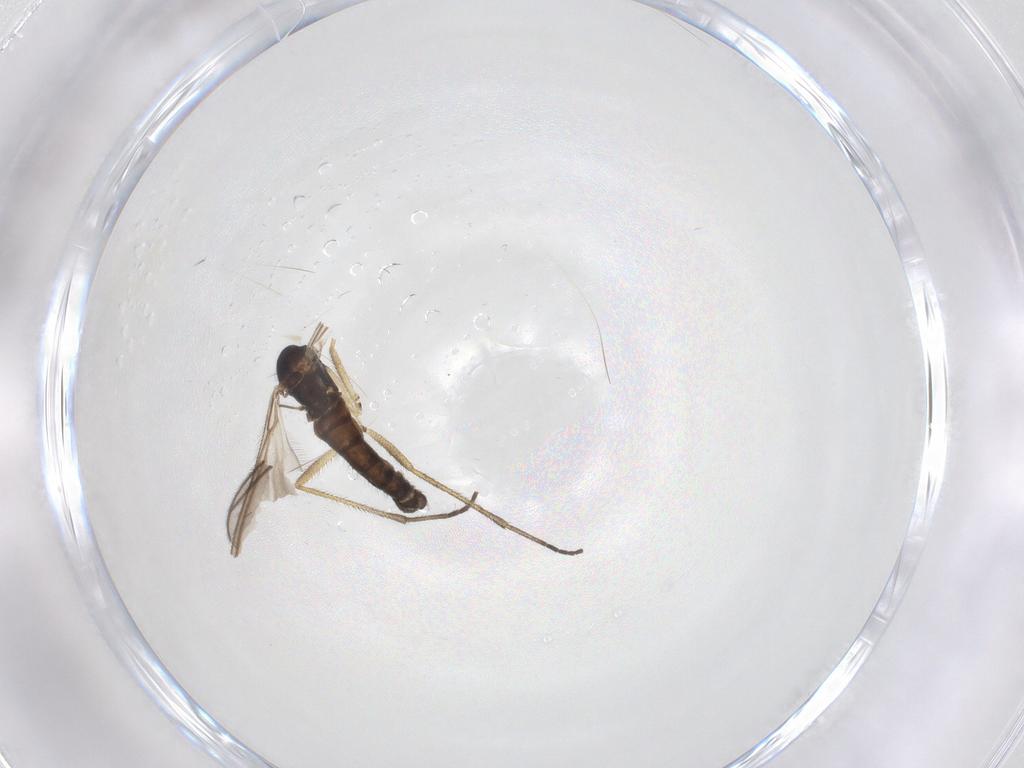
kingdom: Animalia
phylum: Arthropoda
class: Insecta
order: Diptera
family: Sciaridae
